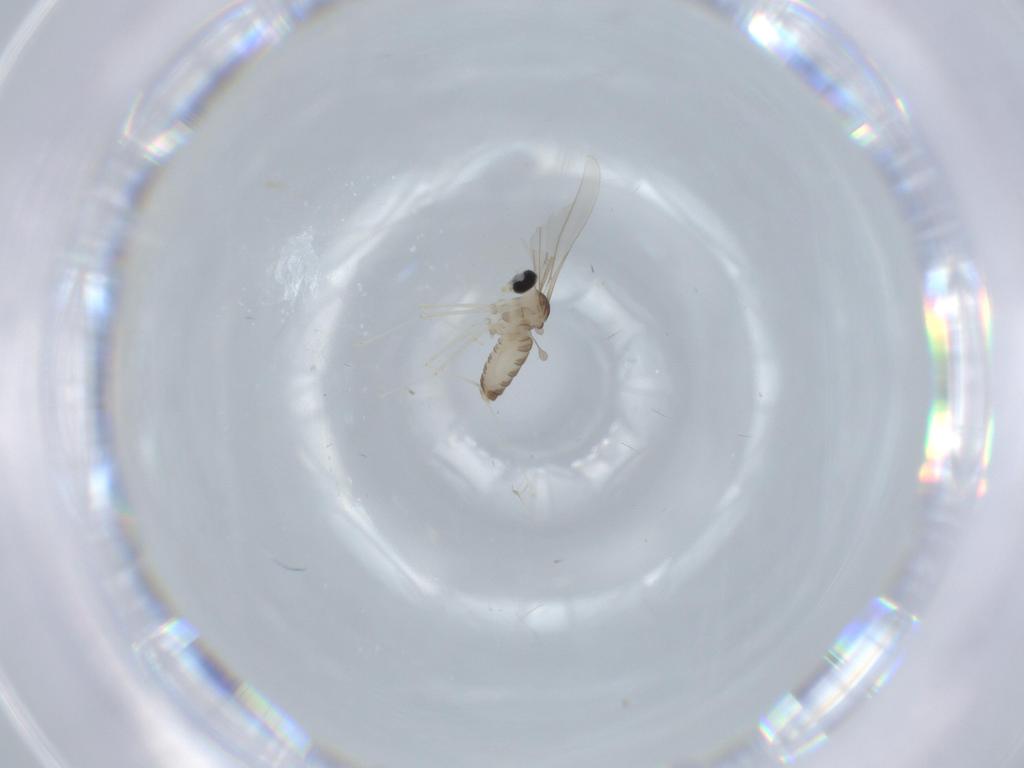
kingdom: Animalia
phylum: Arthropoda
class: Insecta
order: Diptera
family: Cecidomyiidae
